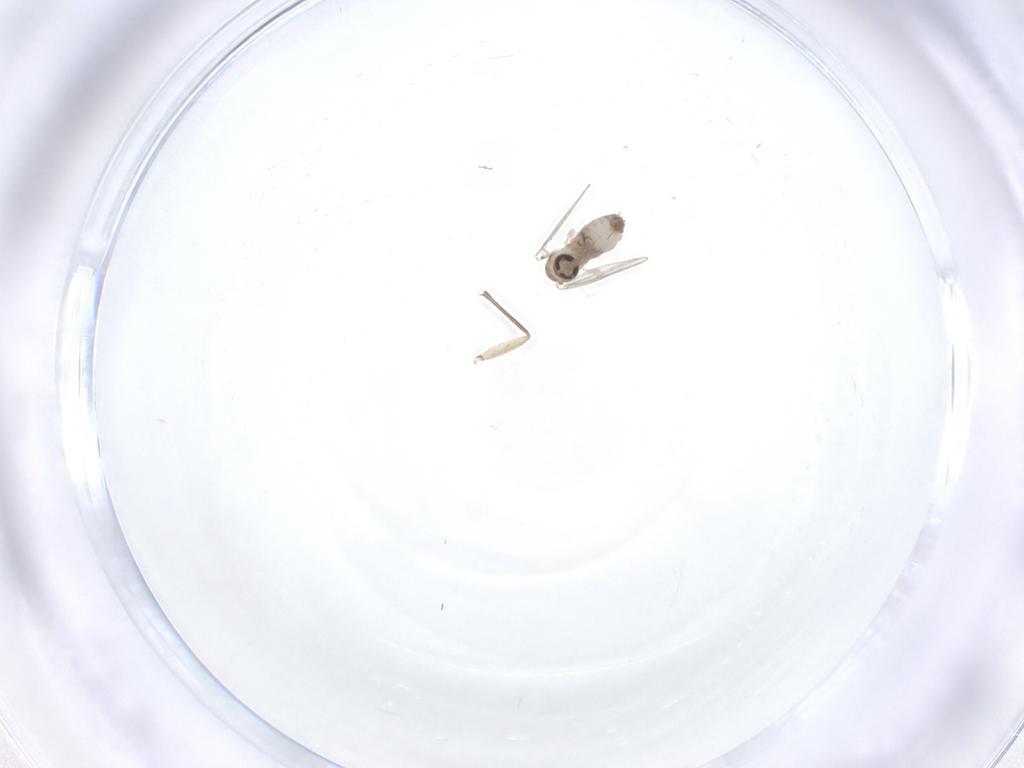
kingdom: Animalia
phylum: Arthropoda
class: Insecta
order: Diptera
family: Psychodidae
